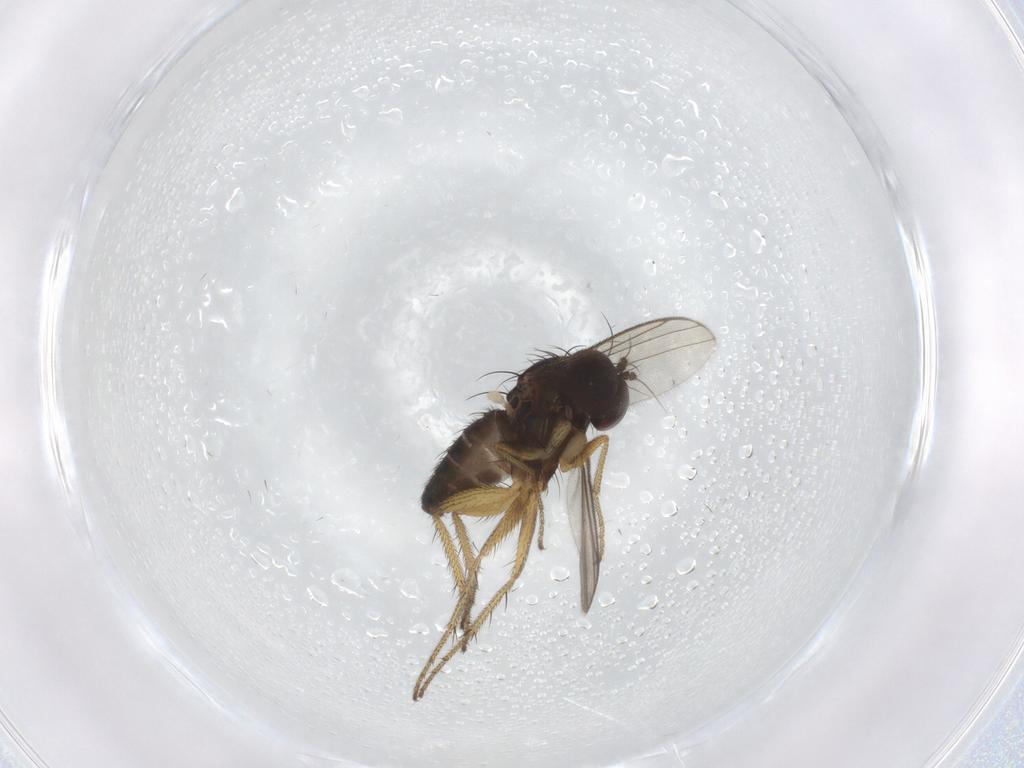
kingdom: Animalia
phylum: Arthropoda
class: Insecta
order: Diptera
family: Dolichopodidae
